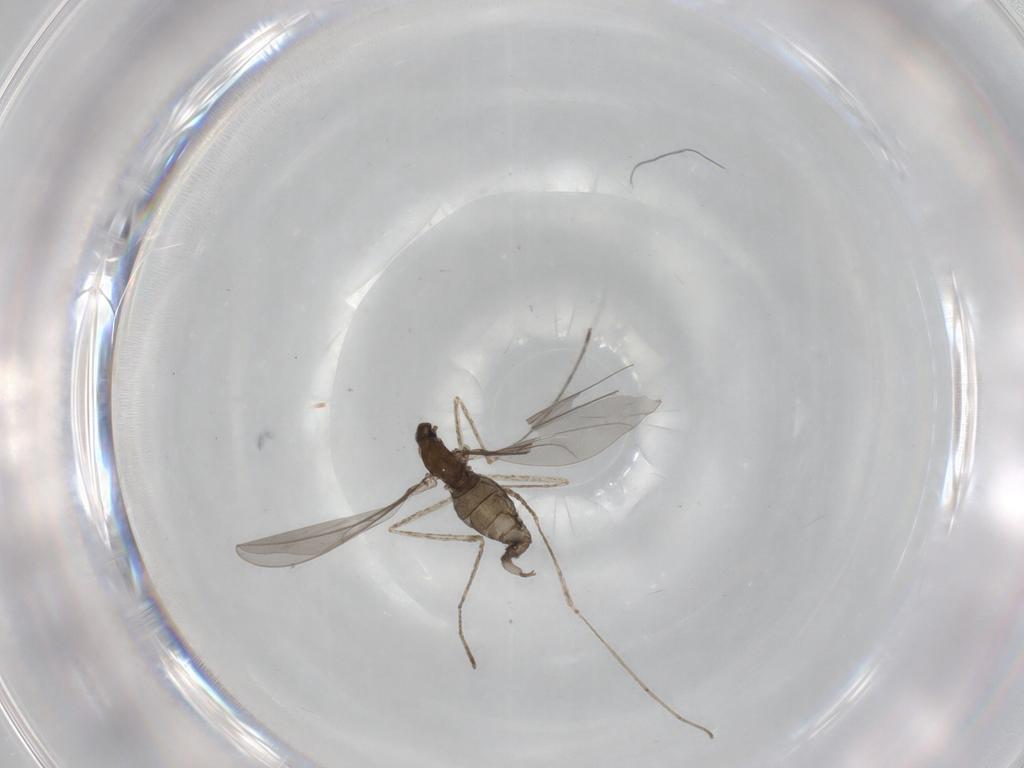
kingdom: Animalia
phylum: Arthropoda
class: Insecta
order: Diptera
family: Cecidomyiidae
